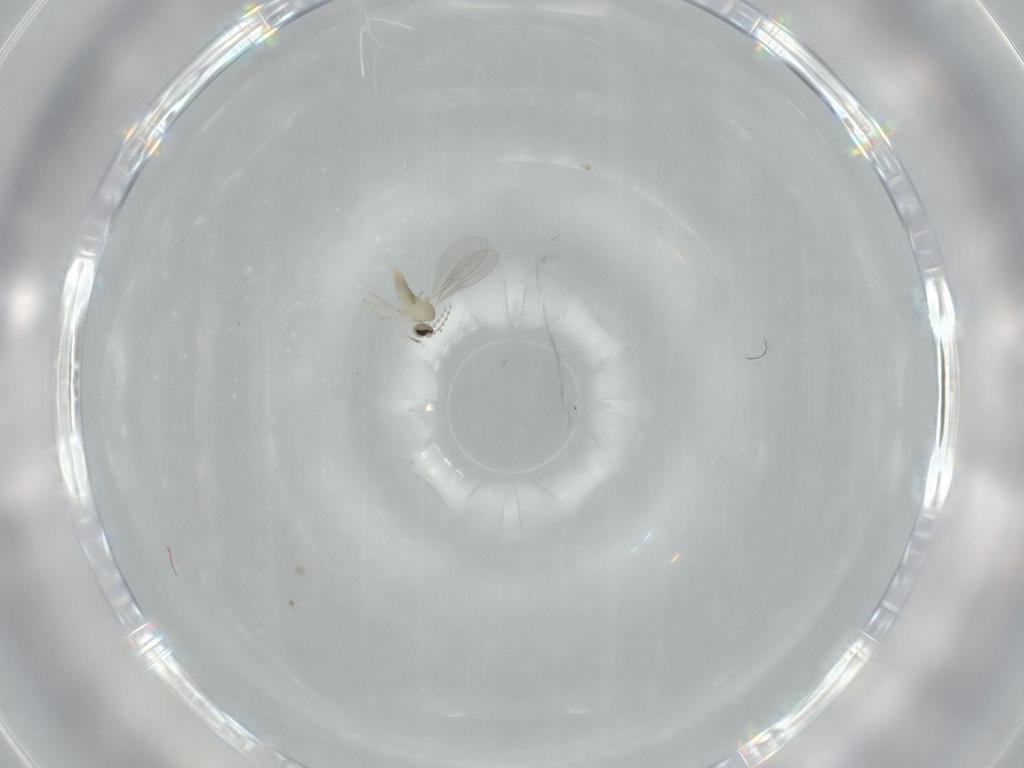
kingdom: Animalia
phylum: Arthropoda
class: Insecta
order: Diptera
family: Cecidomyiidae
